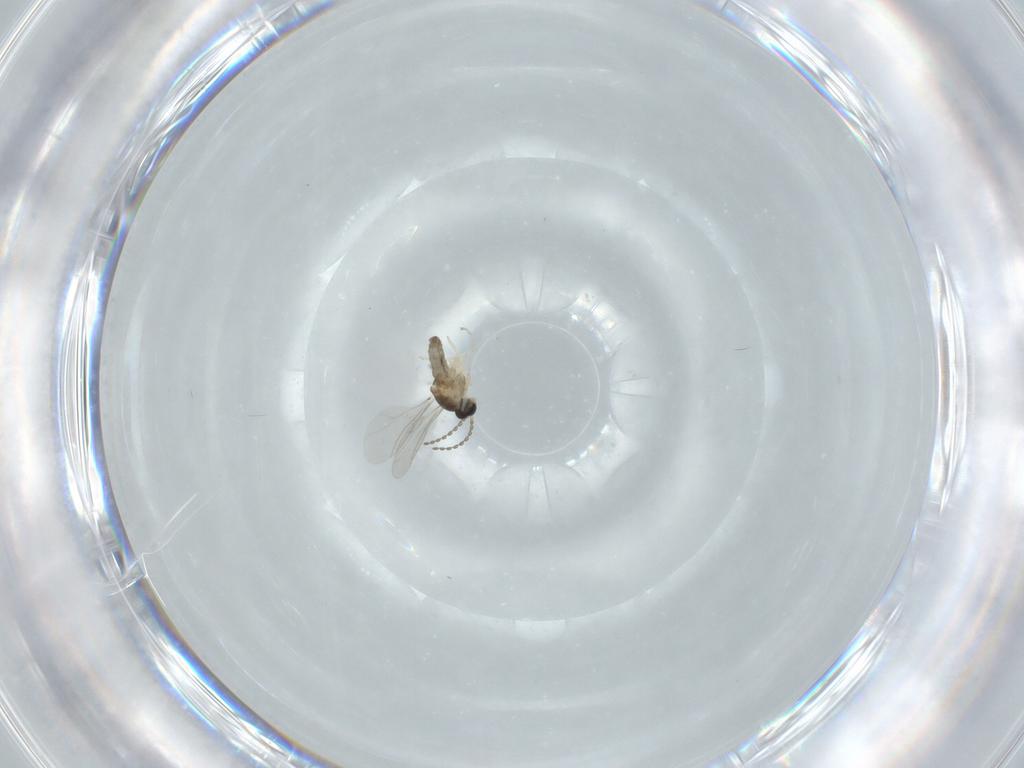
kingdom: Animalia
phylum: Arthropoda
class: Insecta
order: Diptera
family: Cecidomyiidae
